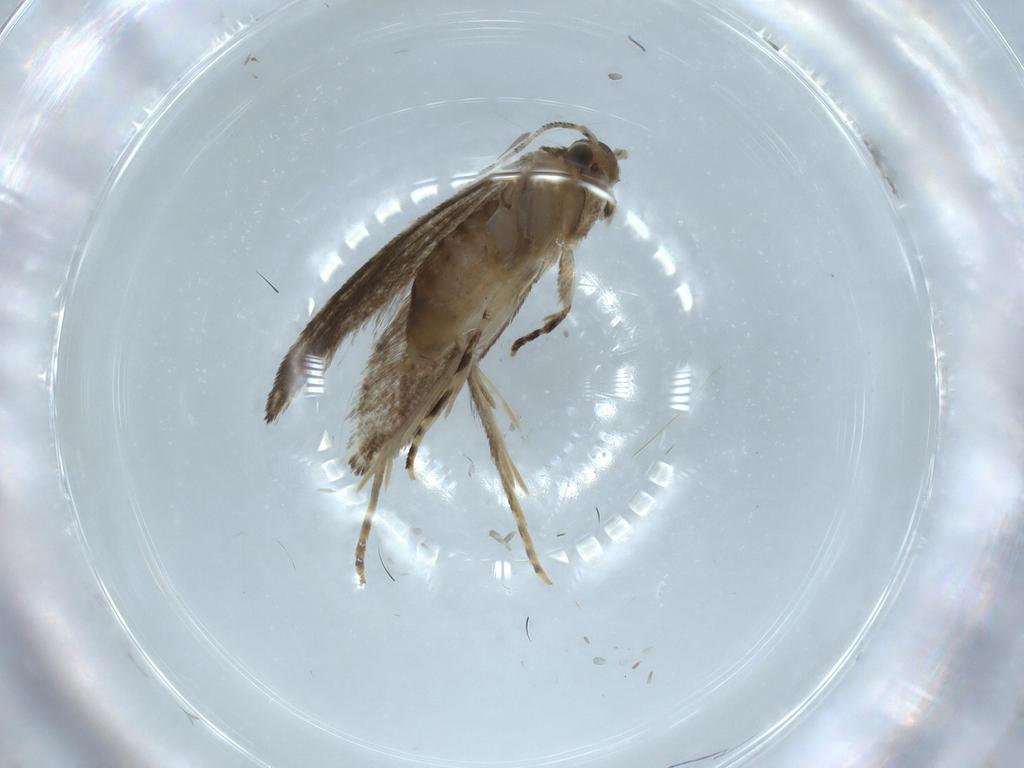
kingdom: Animalia
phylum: Arthropoda
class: Insecta
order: Lepidoptera
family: Tineidae
